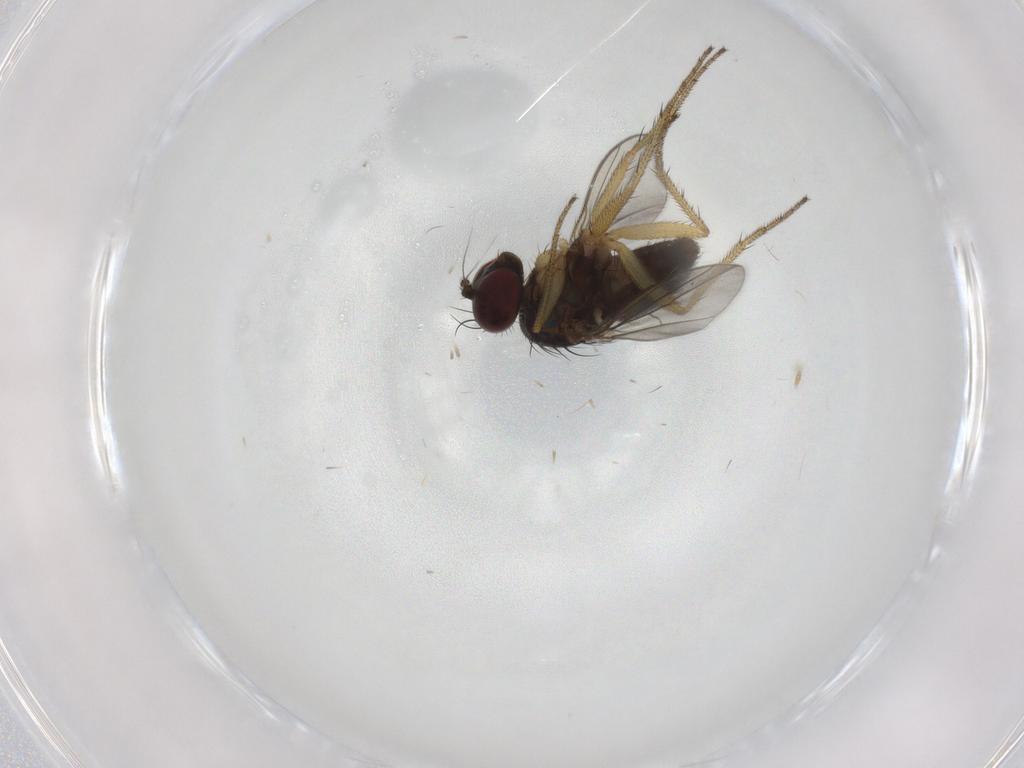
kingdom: Animalia
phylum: Arthropoda
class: Insecta
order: Diptera
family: Dolichopodidae
